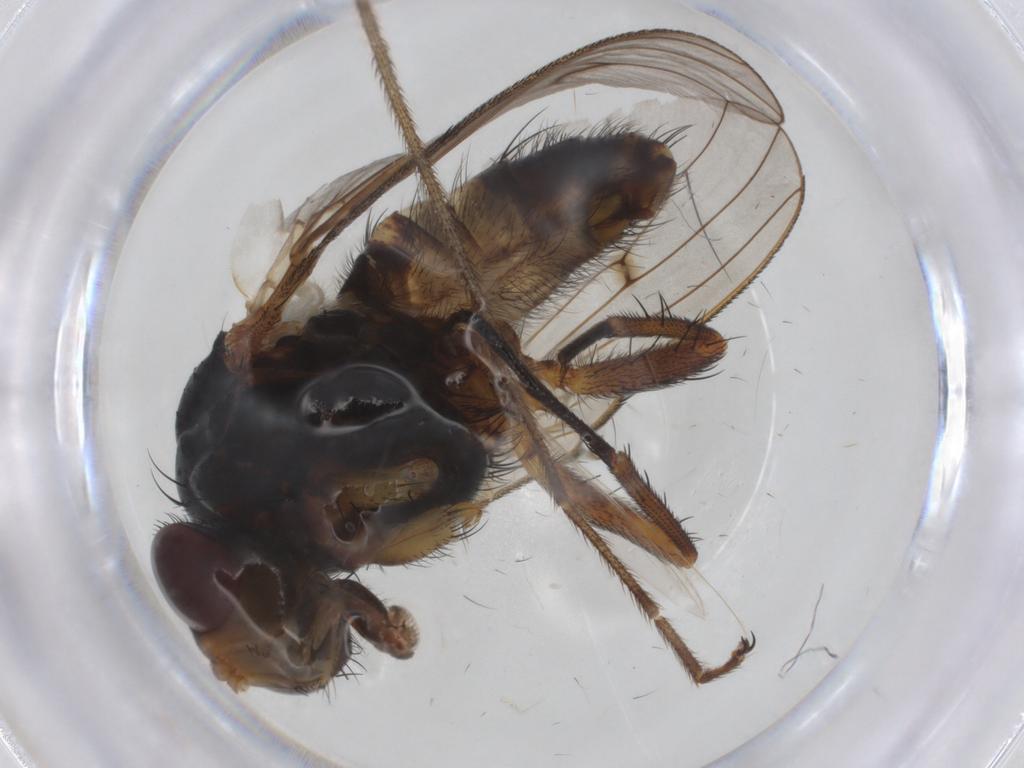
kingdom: Animalia
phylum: Arthropoda
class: Insecta
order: Diptera
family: Anthomyiidae
